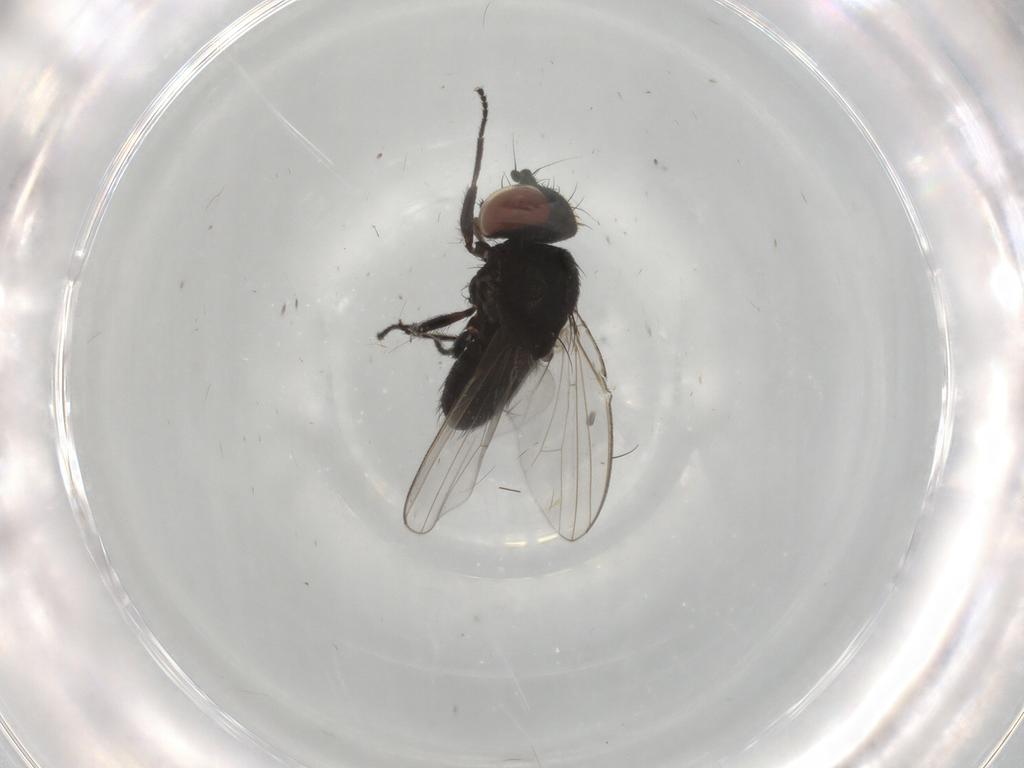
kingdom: Animalia
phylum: Arthropoda
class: Insecta
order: Diptera
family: Milichiidae
